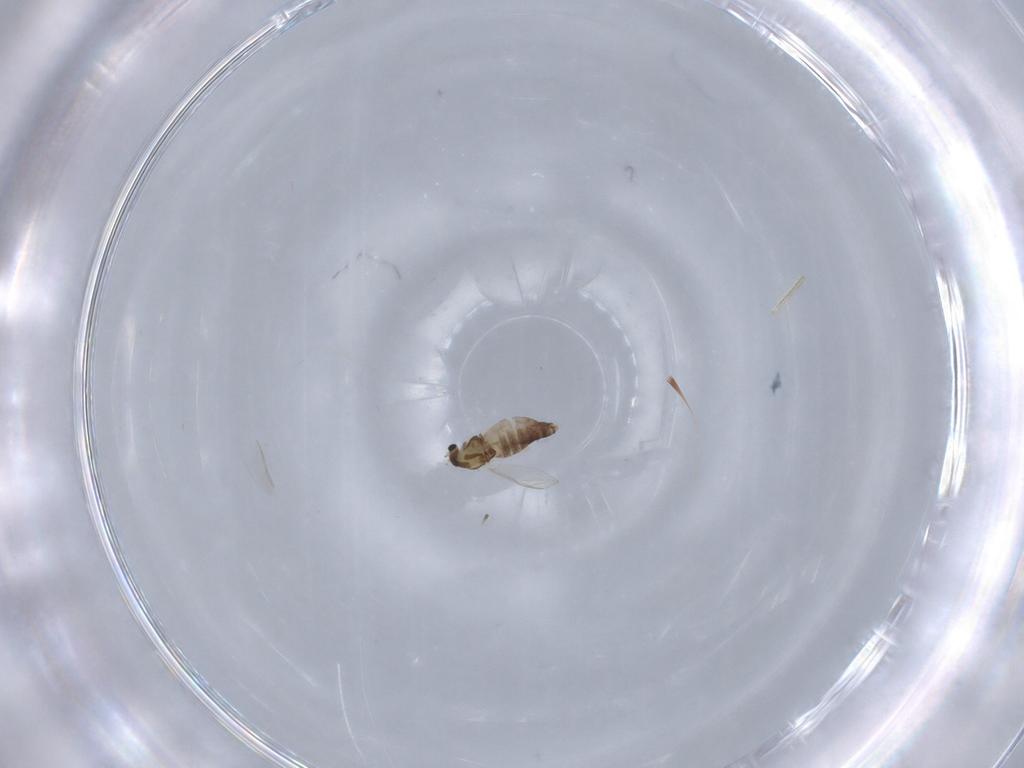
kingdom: Animalia
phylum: Arthropoda
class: Insecta
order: Diptera
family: Chironomidae
